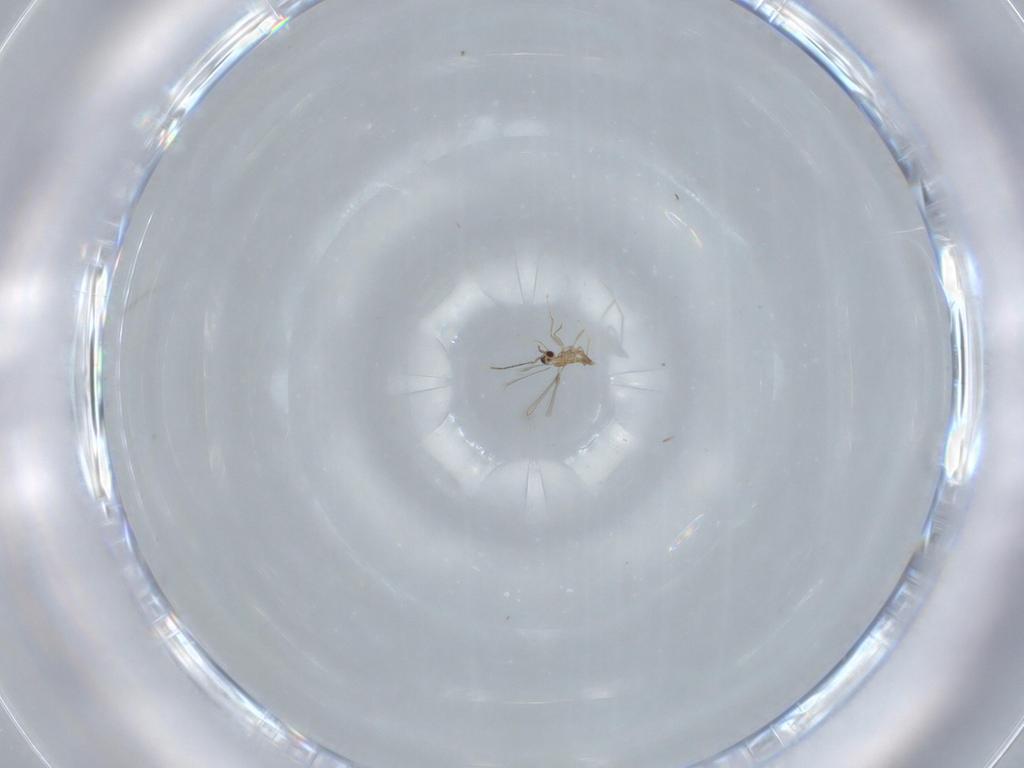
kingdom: Animalia
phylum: Arthropoda
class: Insecta
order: Hymenoptera
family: Mymaridae
